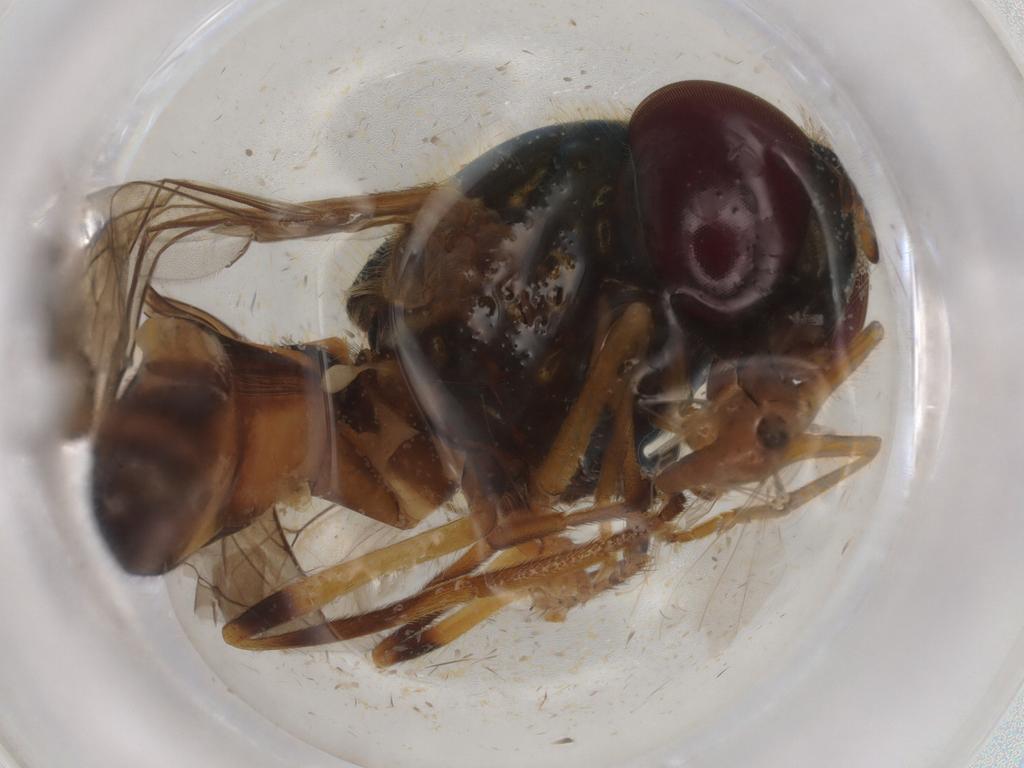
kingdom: Animalia
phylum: Arthropoda
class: Insecta
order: Diptera
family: Syrphidae
